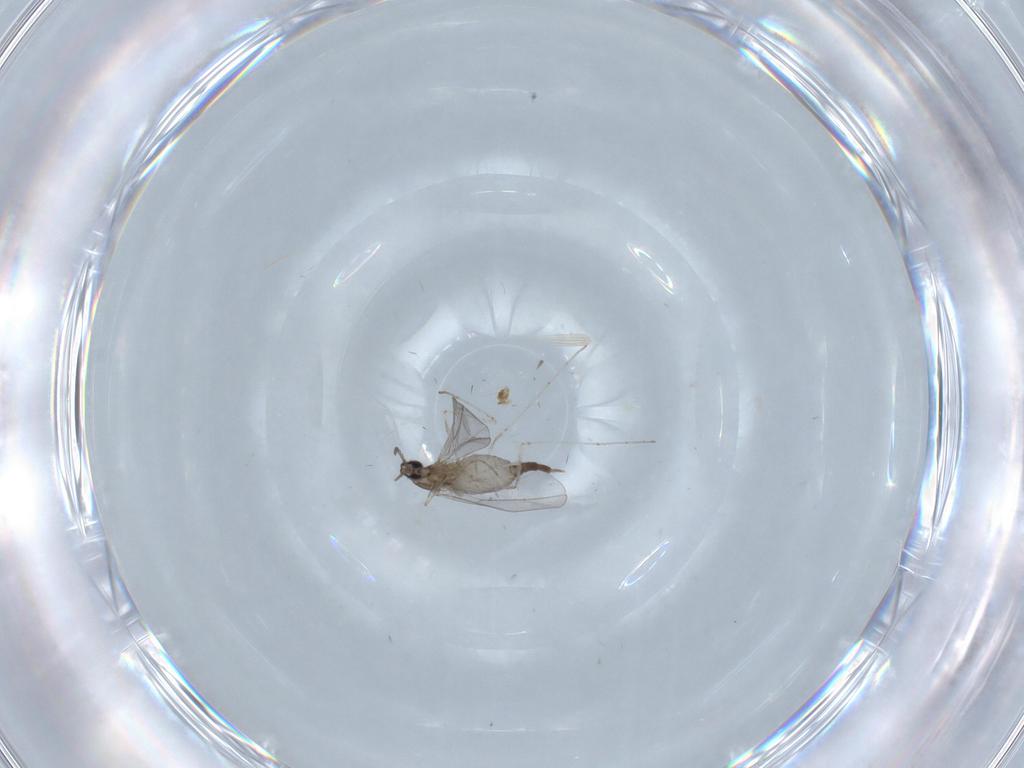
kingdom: Animalia
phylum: Arthropoda
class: Insecta
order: Diptera
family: Cecidomyiidae
